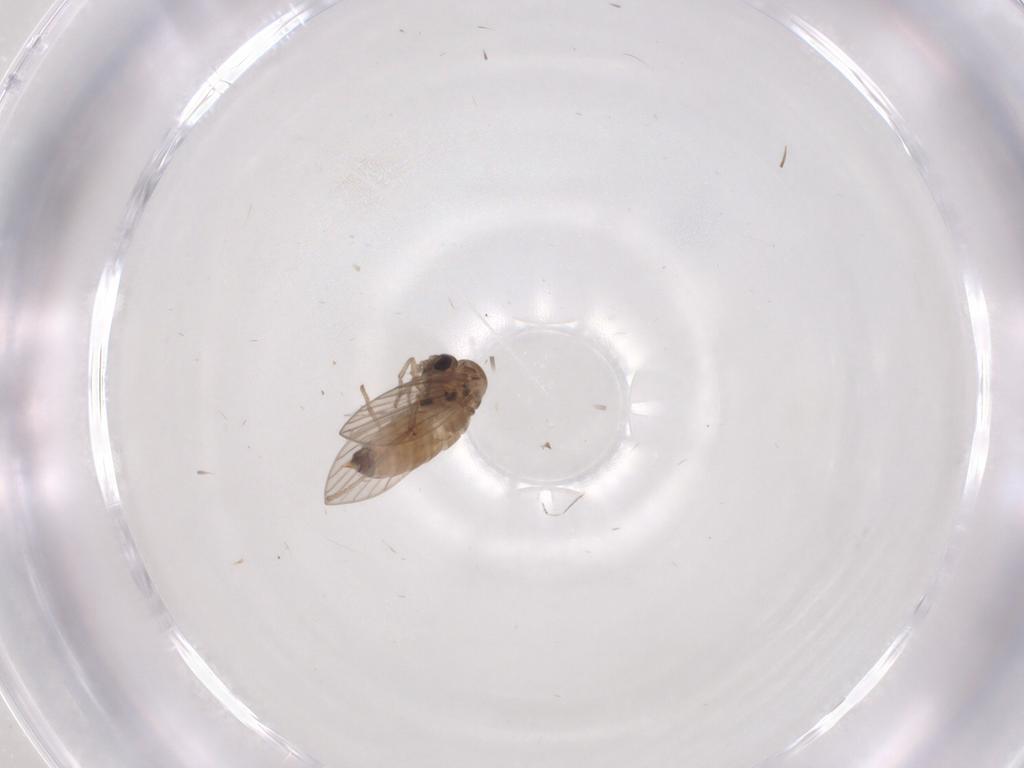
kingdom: Animalia
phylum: Arthropoda
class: Insecta
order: Diptera
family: Psychodidae
